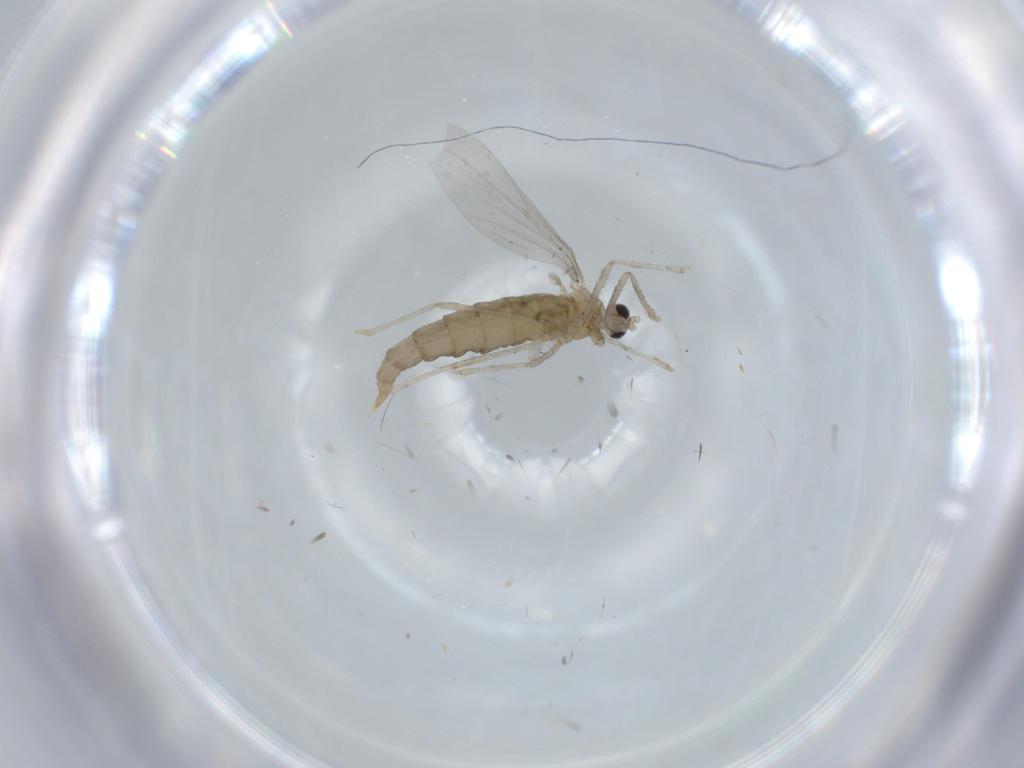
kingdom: Animalia
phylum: Arthropoda
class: Insecta
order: Diptera
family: Cecidomyiidae
